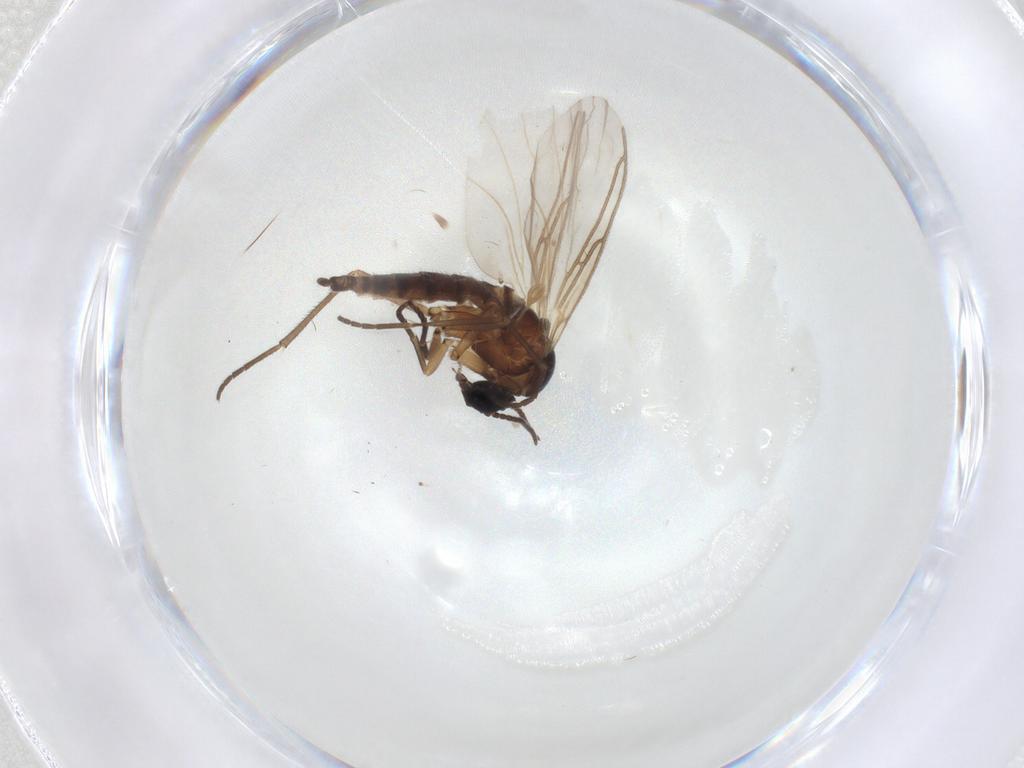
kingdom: Animalia
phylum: Arthropoda
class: Insecta
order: Diptera
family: Sciaridae
